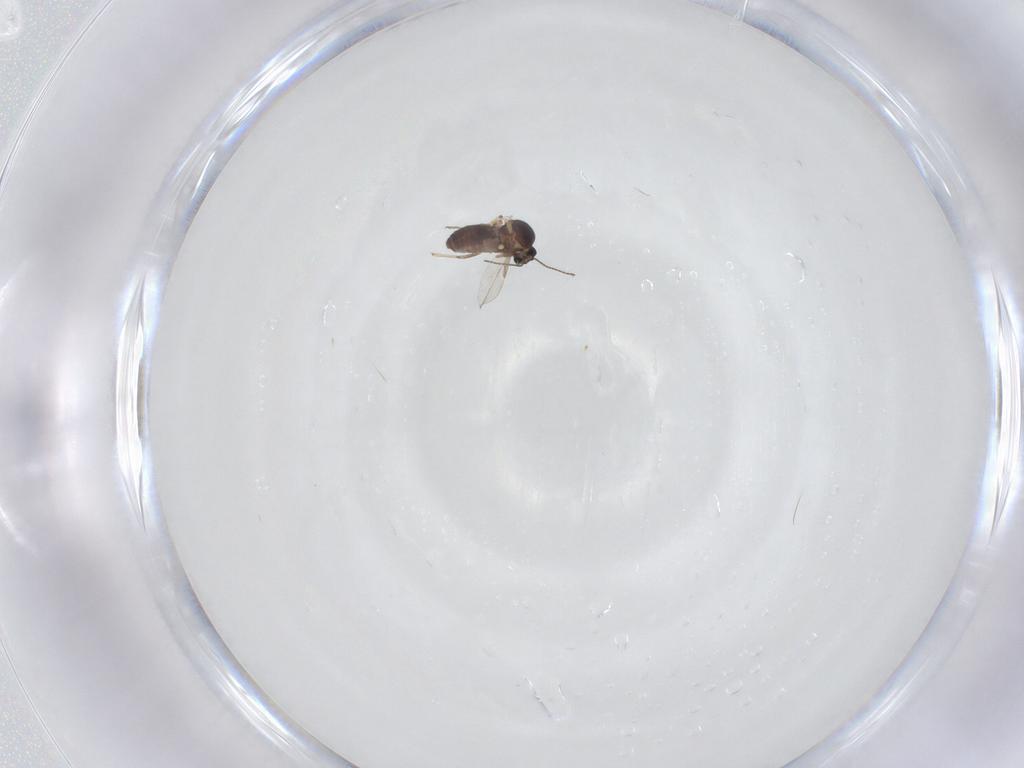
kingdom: Animalia
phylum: Arthropoda
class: Insecta
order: Diptera
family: Ceratopogonidae
